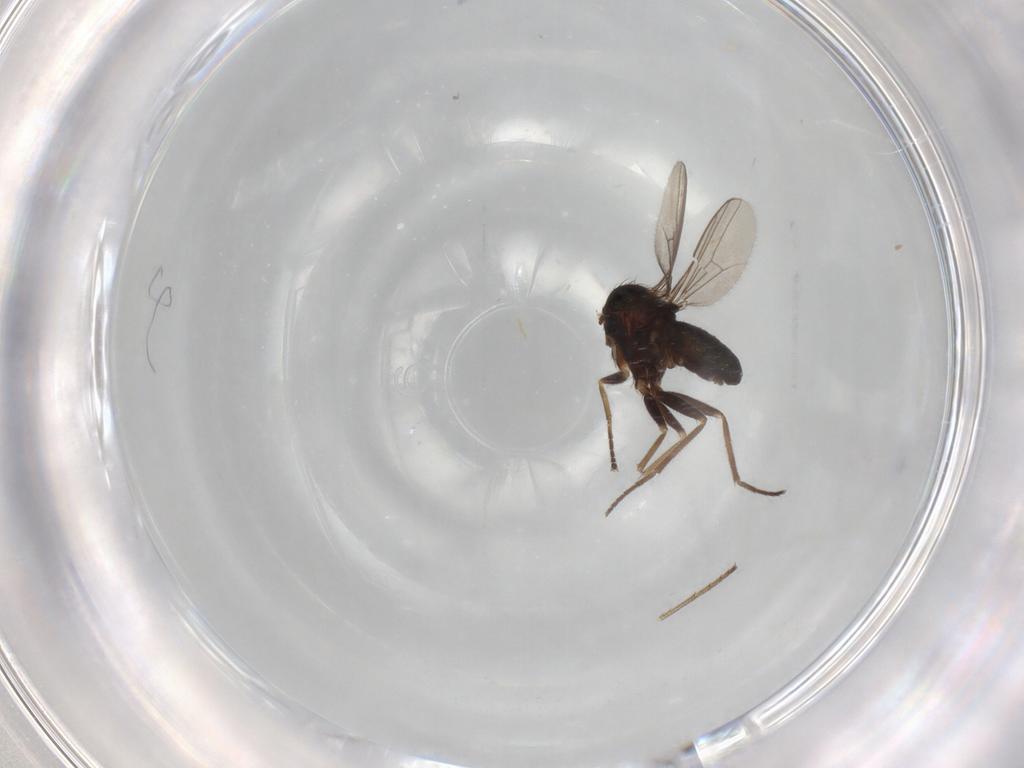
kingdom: Animalia
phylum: Arthropoda
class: Insecta
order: Diptera
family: Dolichopodidae
